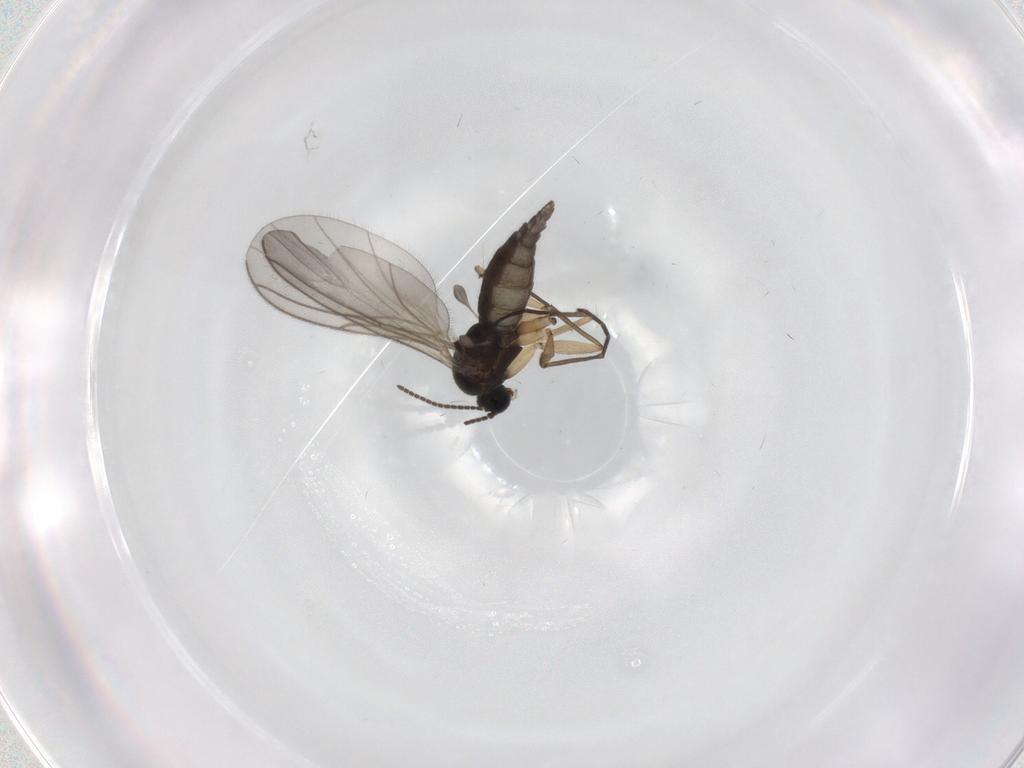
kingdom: Animalia
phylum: Arthropoda
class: Insecta
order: Diptera
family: Sciaridae
